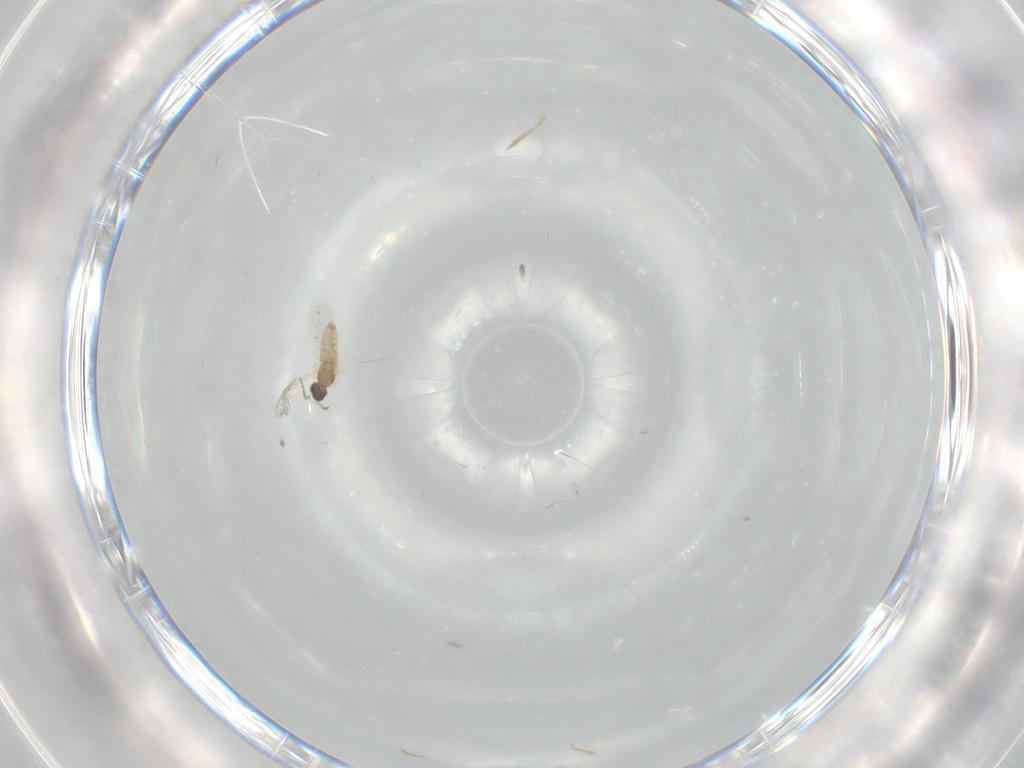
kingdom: Animalia
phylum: Arthropoda
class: Insecta
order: Diptera
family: Cecidomyiidae
